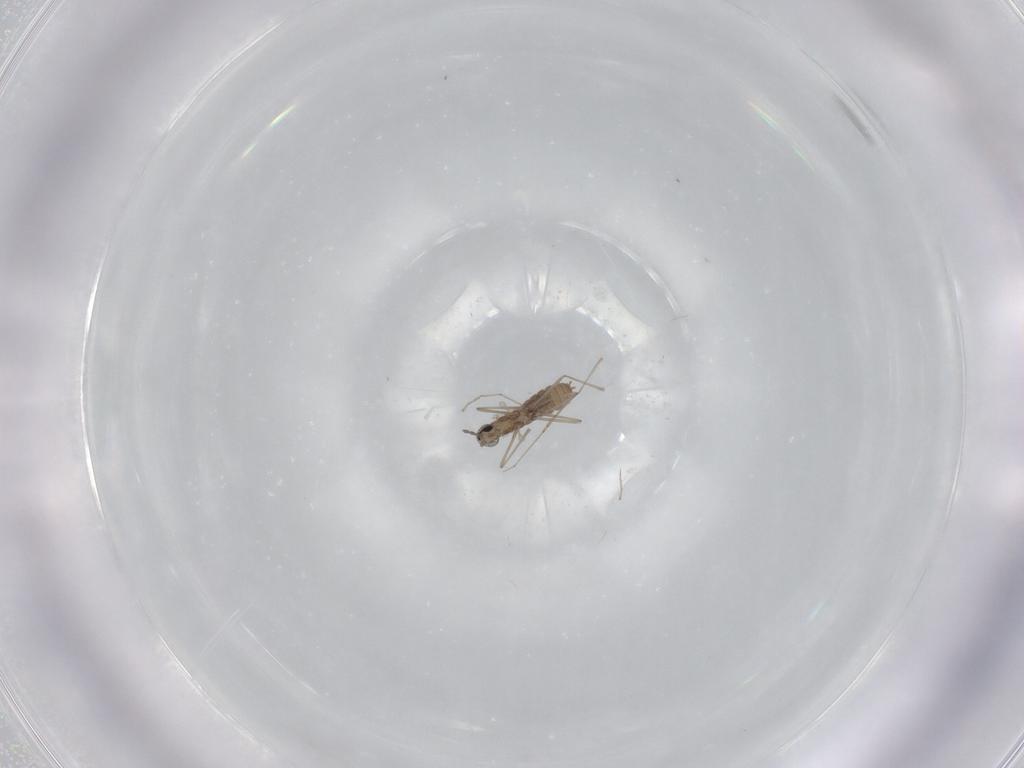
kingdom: Animalia
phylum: Arthropoda
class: Insecta
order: Diptera
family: Cecidomyiidae
